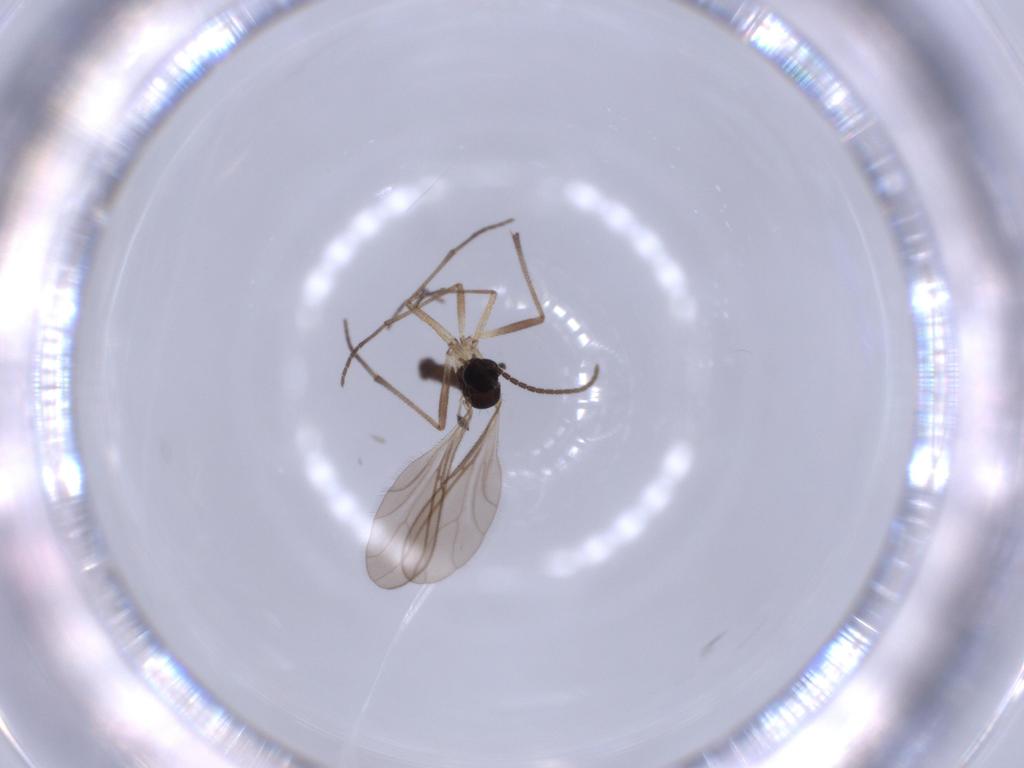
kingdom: Animalia
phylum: Arthropoda
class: Insecta
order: Diptera
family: Sciaridae
